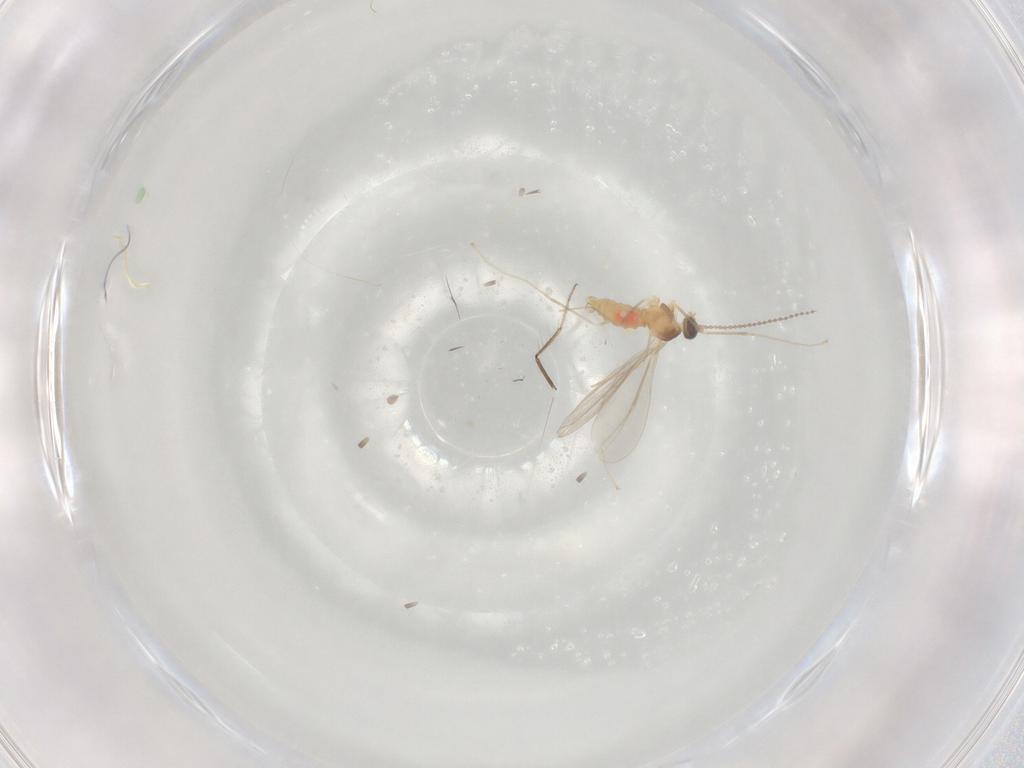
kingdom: Animalia
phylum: Arthropoda
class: Insecta
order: Diptera
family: Cecidomyiidae
